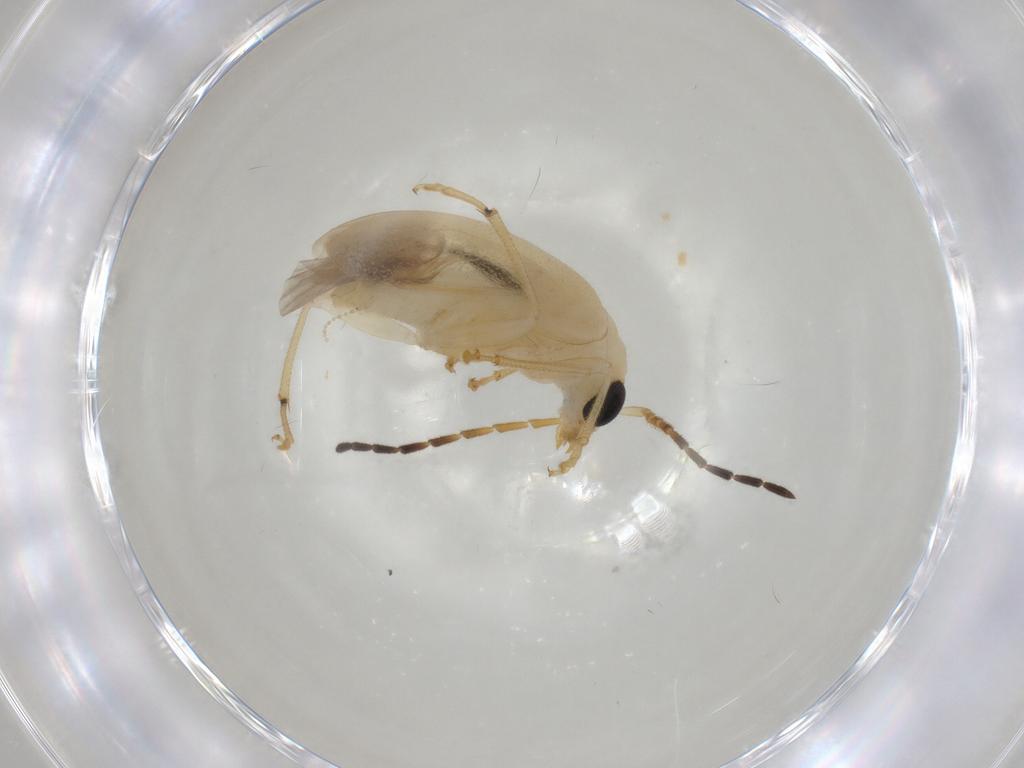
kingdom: Animalia
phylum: Arthropoda
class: Insecta
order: Coleoptera
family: Chrysomelidae
